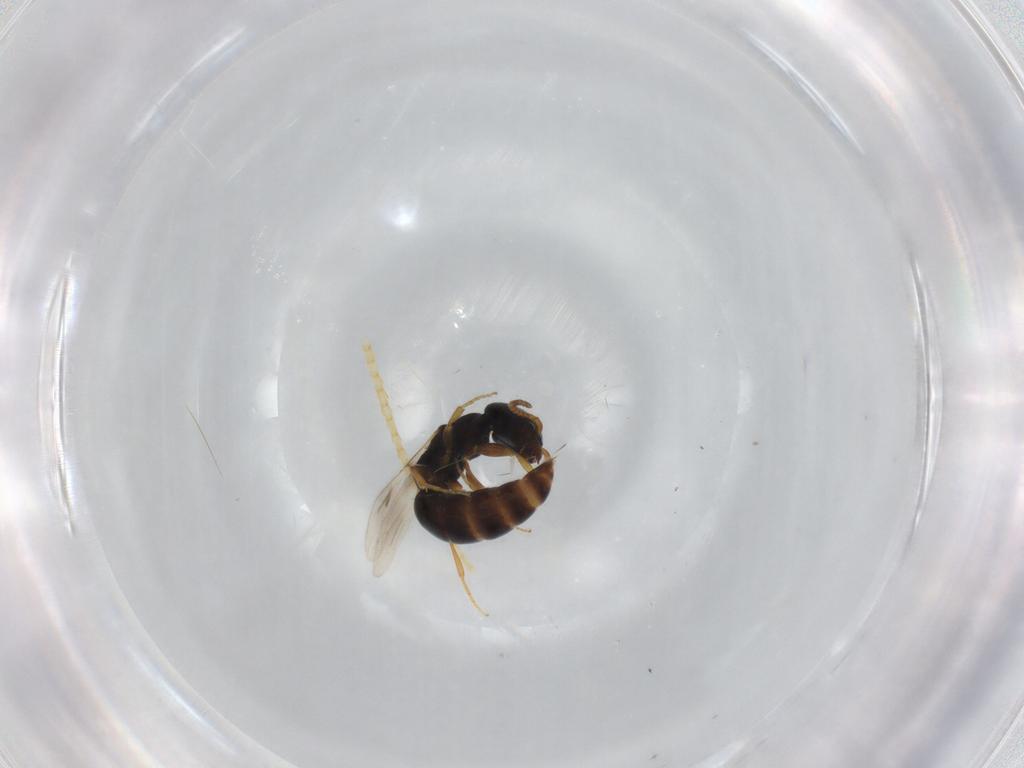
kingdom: Animalia
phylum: Arthropoda
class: Insecta
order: Hymenoptera
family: Bethylidae
